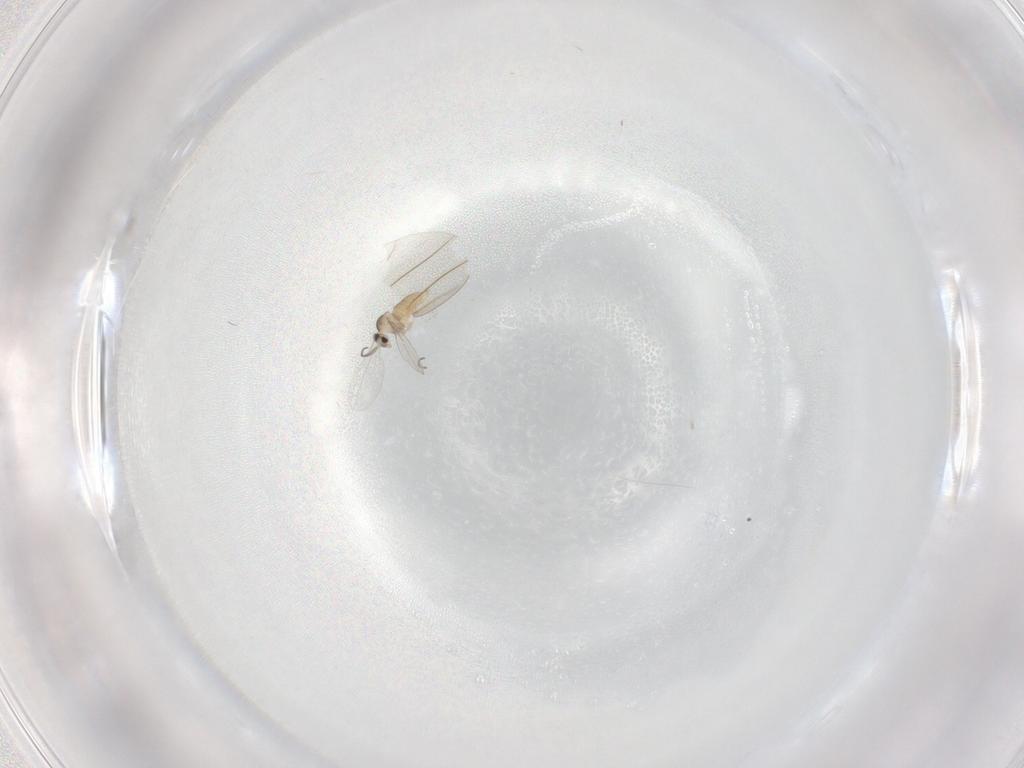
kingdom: Animalia
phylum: Arthropoda
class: Insecta
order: Diptera
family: Cecidomyiidae
